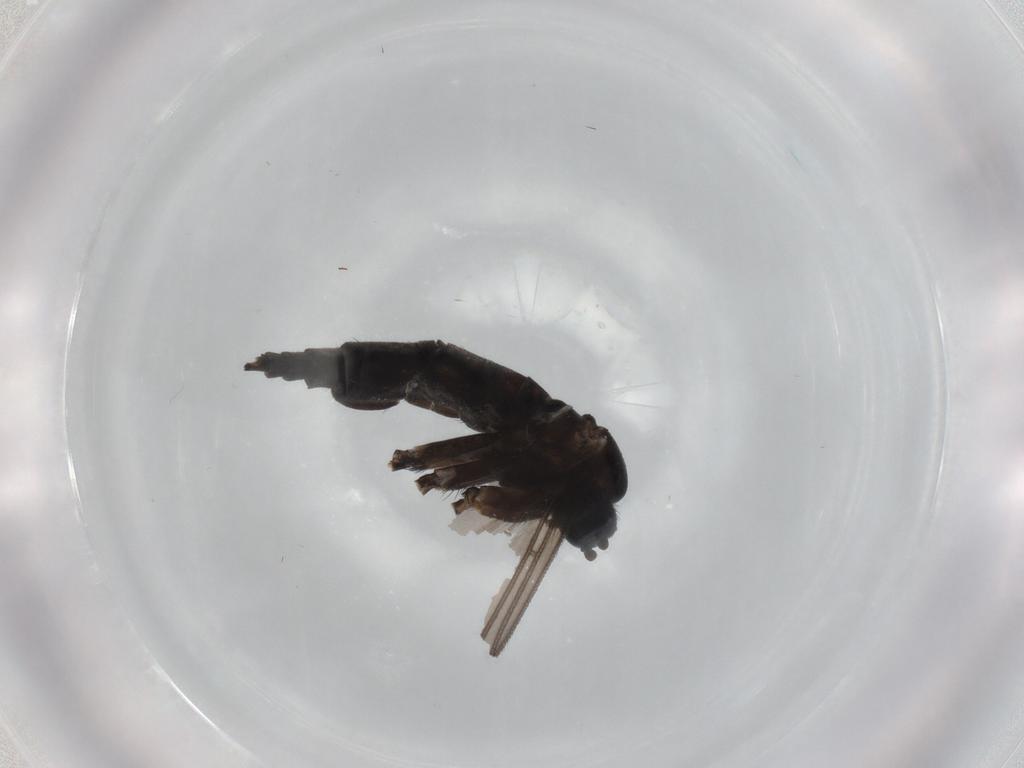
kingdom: Animalia
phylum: Arthropoda
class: Insecta
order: Diptera
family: Sciaridae
